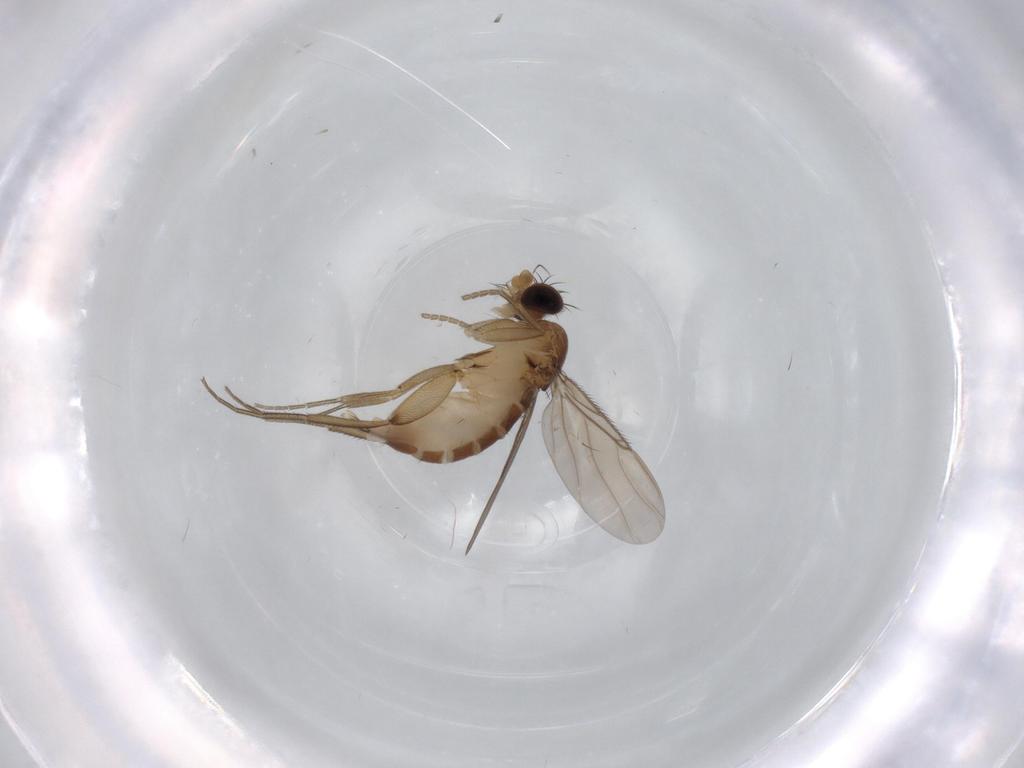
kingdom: Animalia
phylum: Arthropoda
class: Insecta
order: Diptera
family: Phoridae
